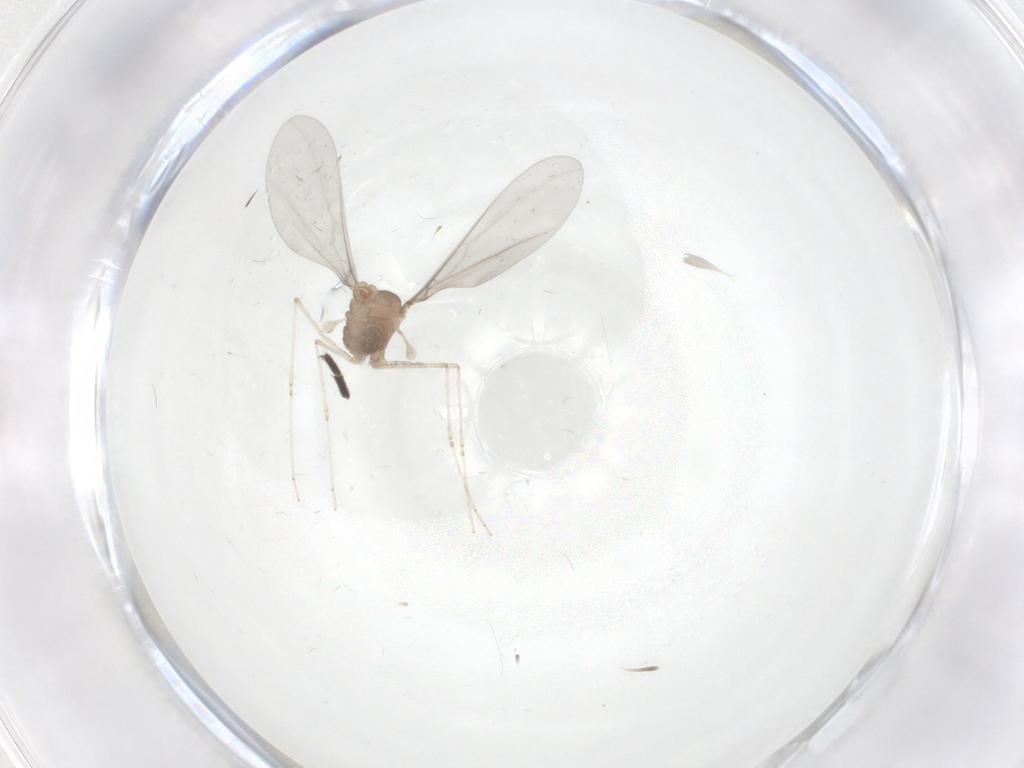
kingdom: Animalia
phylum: Arthropoda
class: Insecta
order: Diptera
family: Cecidomyiidae
